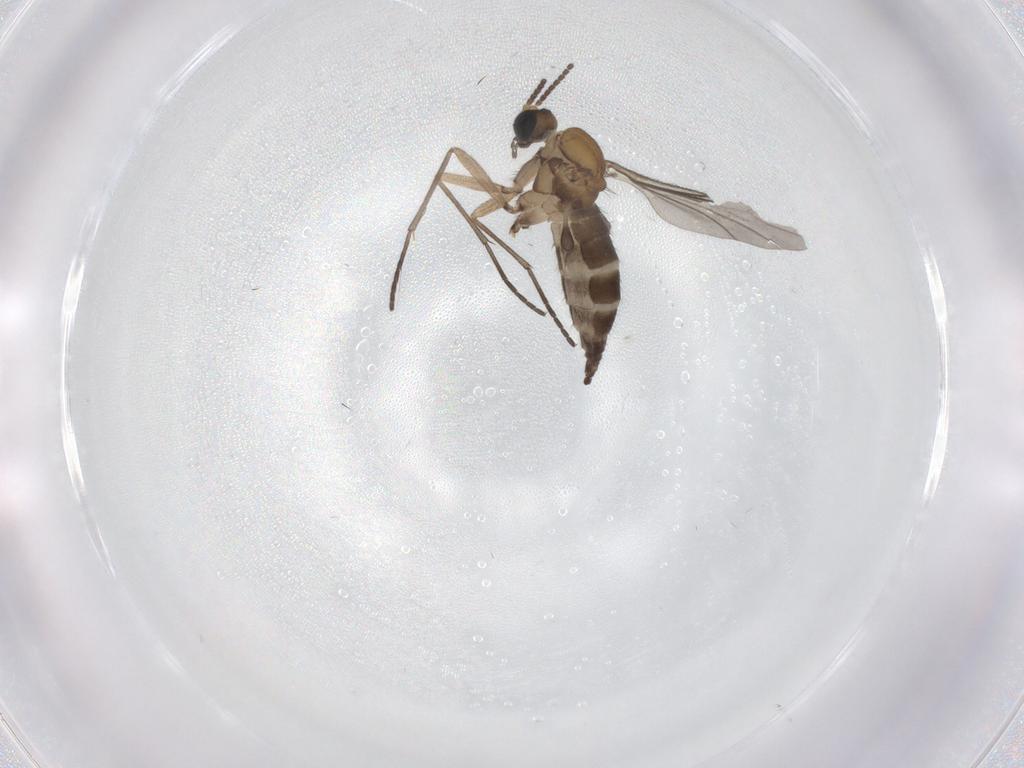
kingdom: Animalia
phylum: Arthropoda
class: Insecta
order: Diptera
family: Sciaridae
